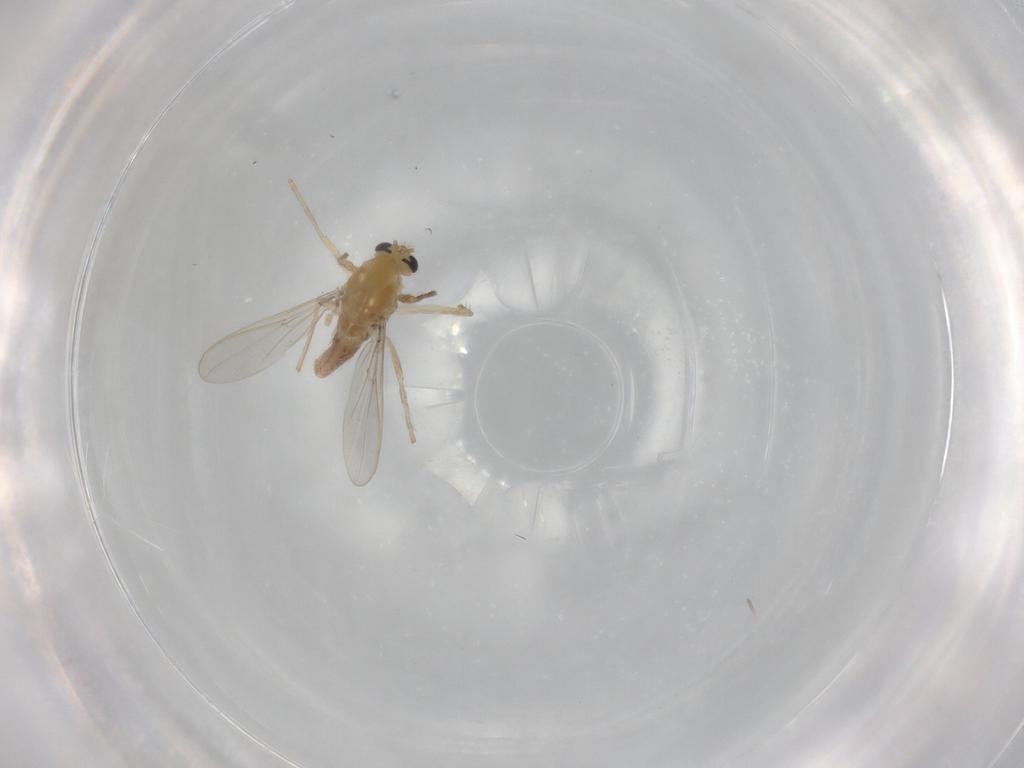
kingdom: Animalia
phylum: Arthropoda
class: Insecta
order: Diptera
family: Chironomidae
